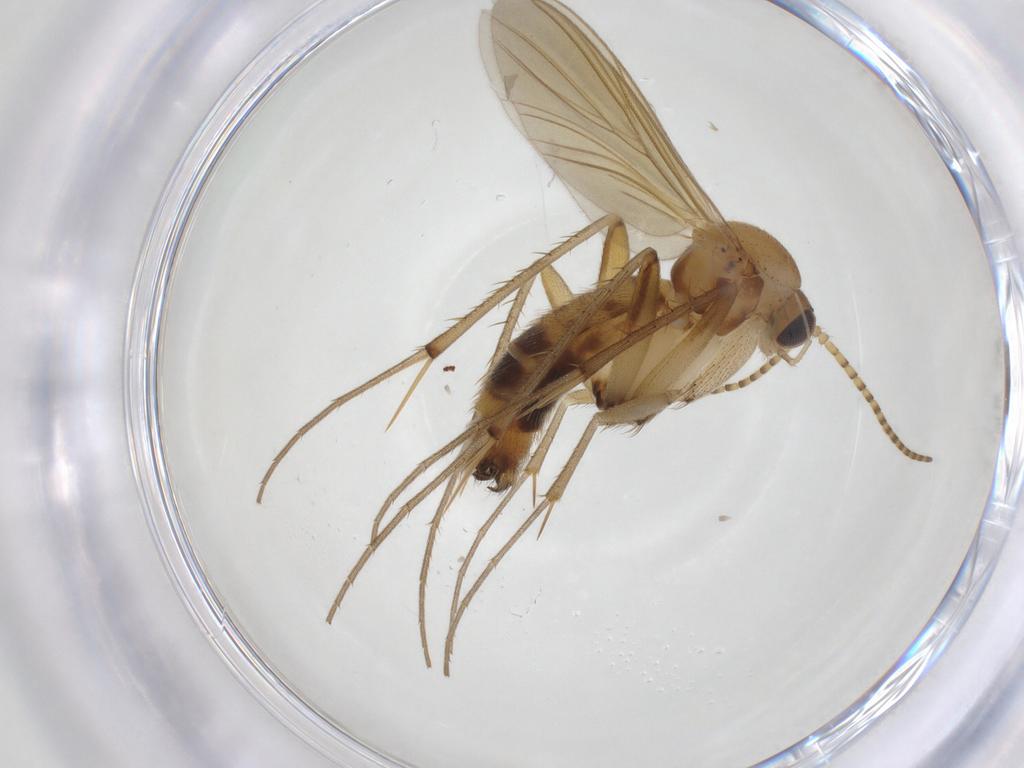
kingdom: Animalia
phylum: Arthropoda
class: Insecta
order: Diptera
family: Mycetophilidae
